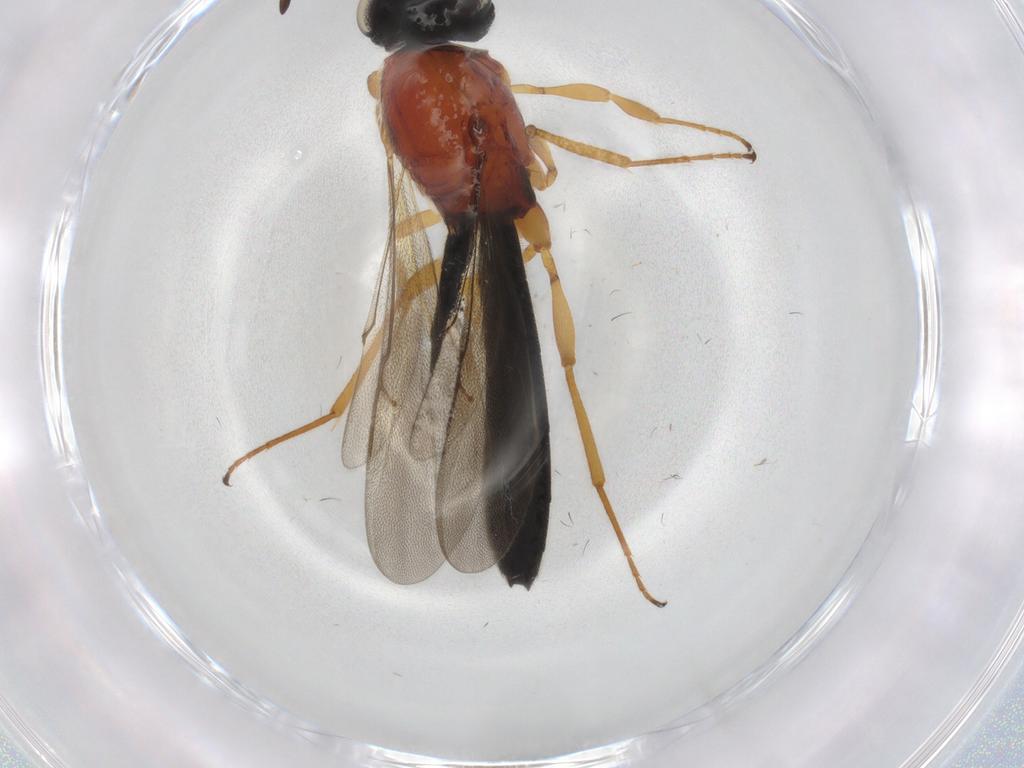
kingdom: Animalia
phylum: Arthropoda
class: Insecta
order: Hymenoptera
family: Scelionidae
